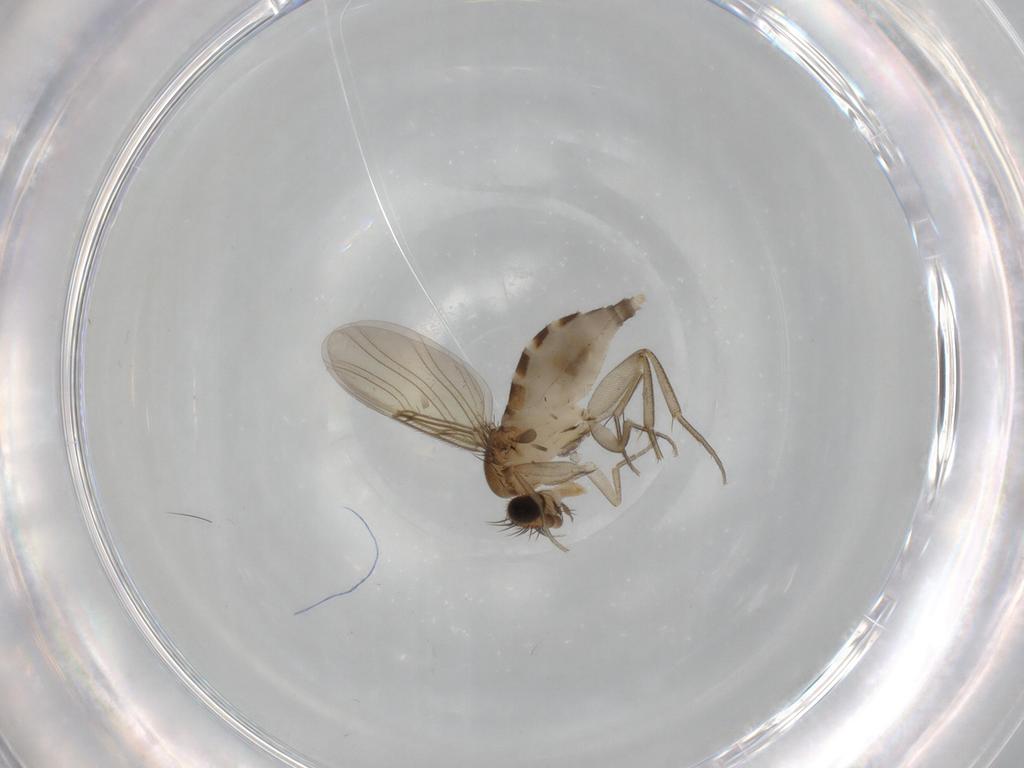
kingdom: Animalia
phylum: Arthropoda
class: Insecta
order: Diptera
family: Phoridae
